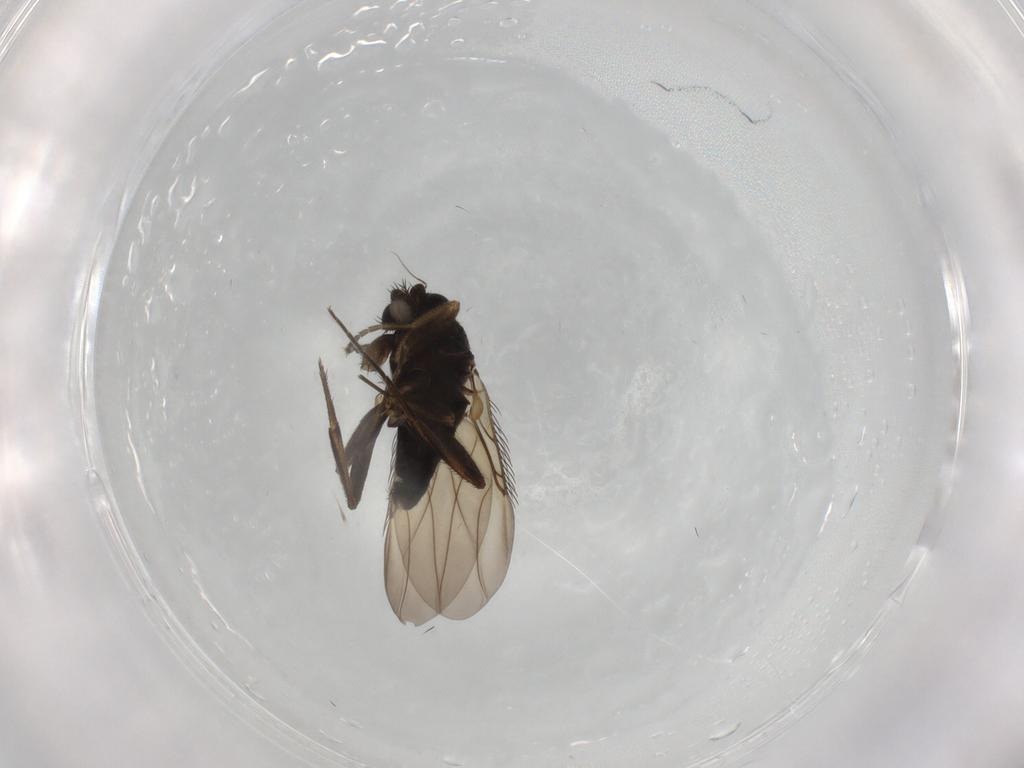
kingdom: Animalia
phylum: Arthropoda
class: Insecta
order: Diptera
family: Phoridae
